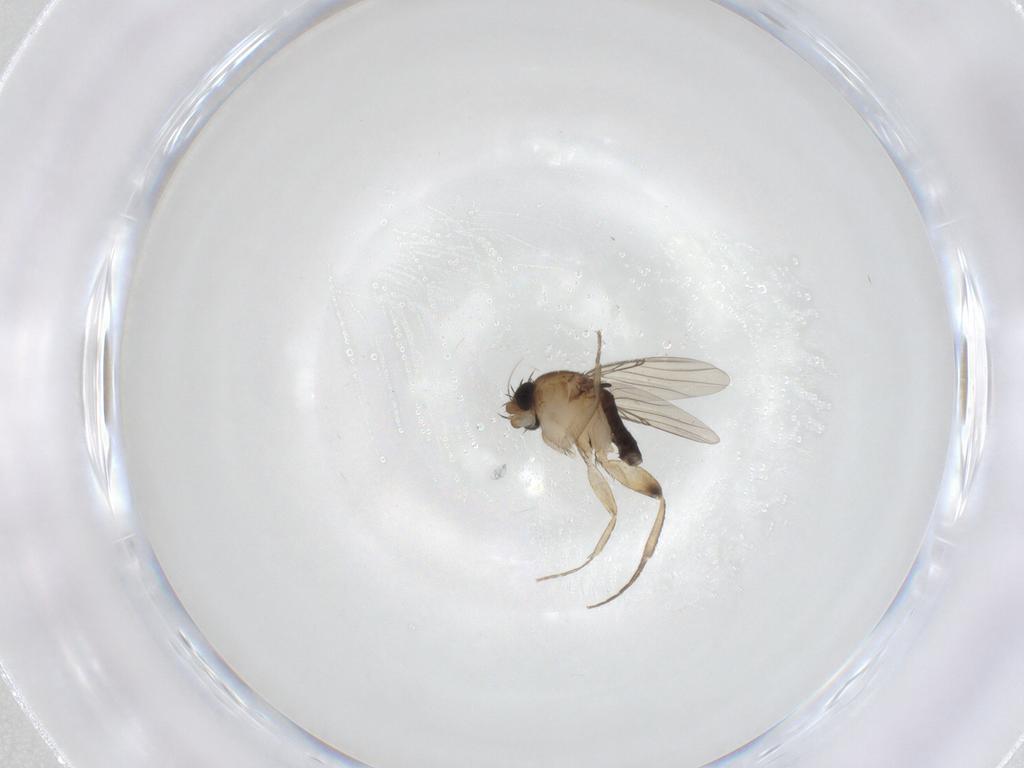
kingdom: Animalia
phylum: Arthropoda
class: Insecta
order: Diptera
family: Phoridae
